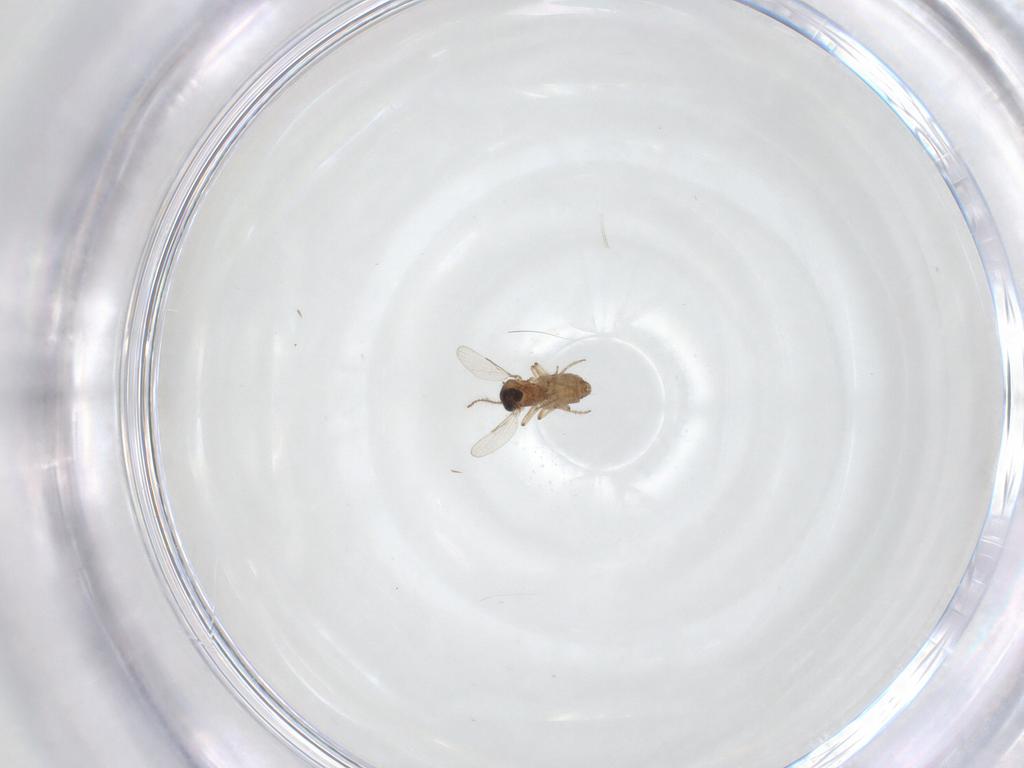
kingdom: Animalia
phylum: Arthropoda
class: Insecta
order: Diptera
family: Ceratopogonidae
